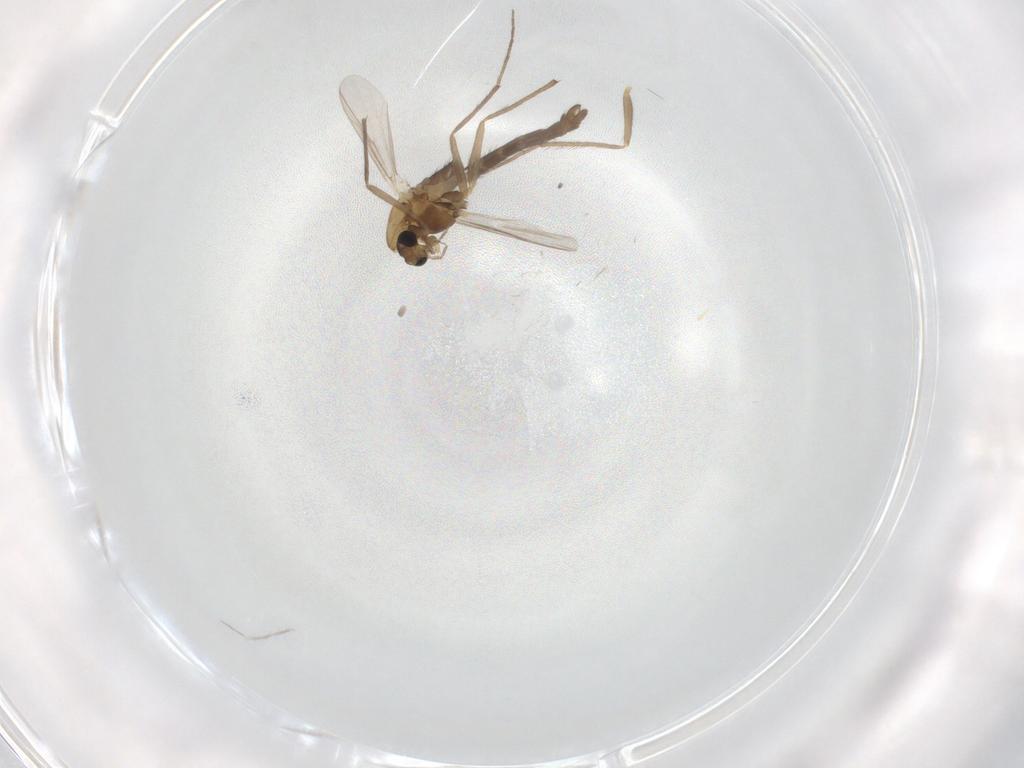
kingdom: Animalia
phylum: Arthropoda
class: Insecta
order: Diptera
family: Chironomidae
